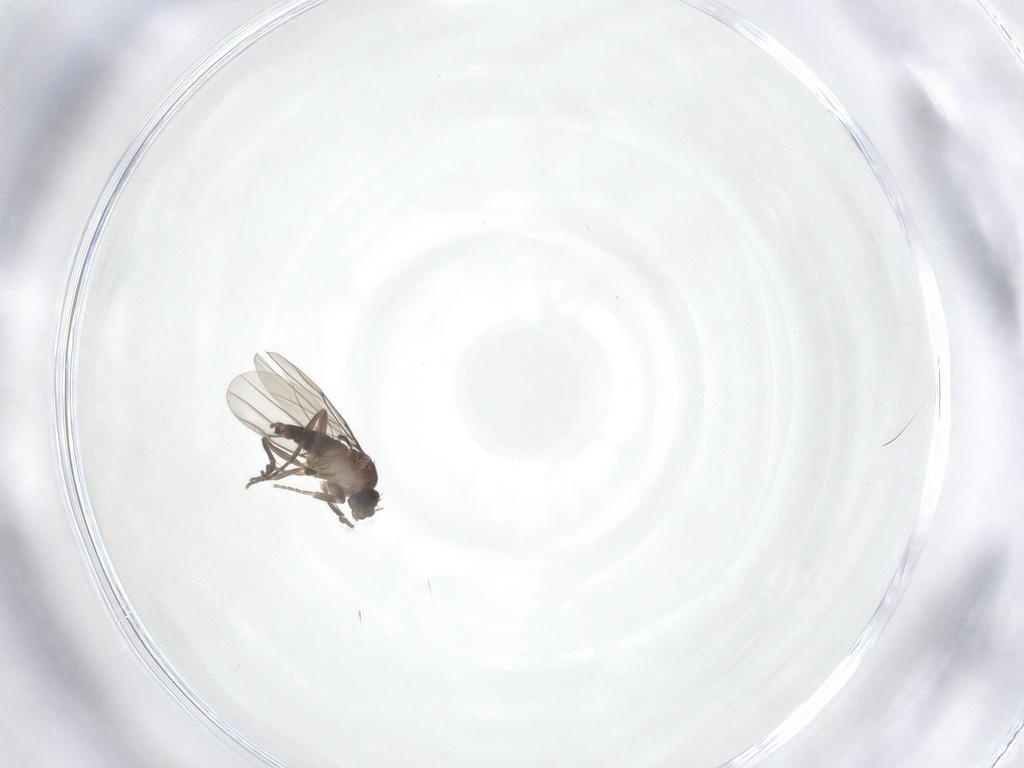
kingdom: Animalia
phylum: Arthropoda
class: Insecta
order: Diptera
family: Phoridae
